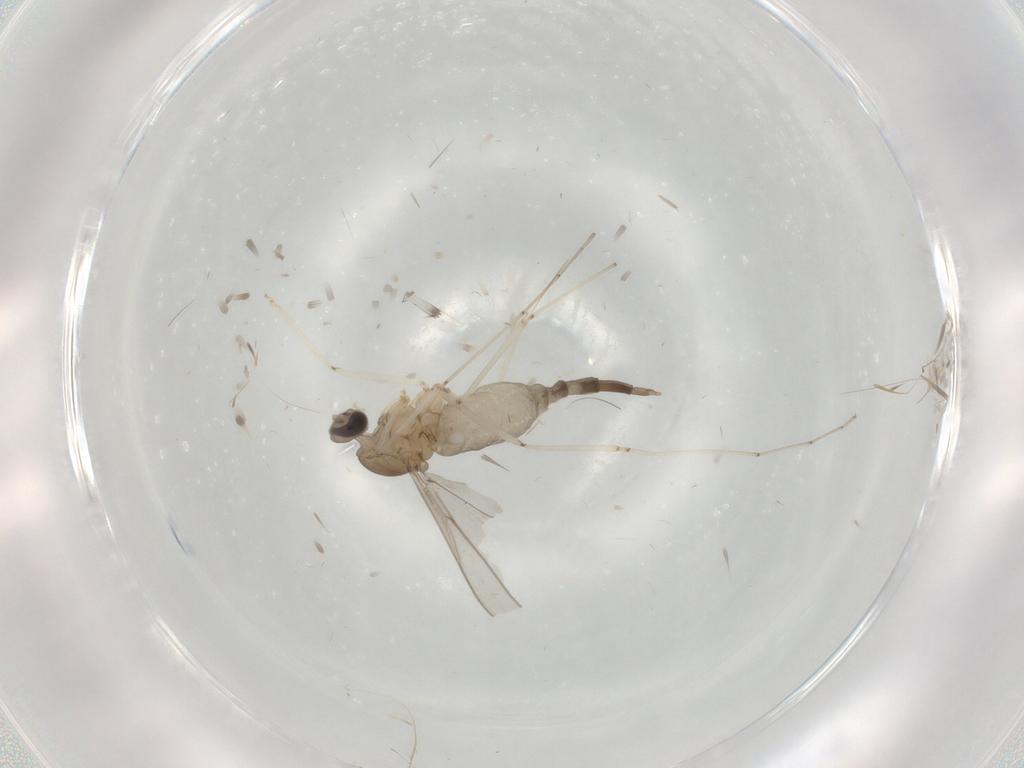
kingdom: Animalia
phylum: Arthropoda
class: Insecta
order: Diptera
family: Cecidomyiidae
